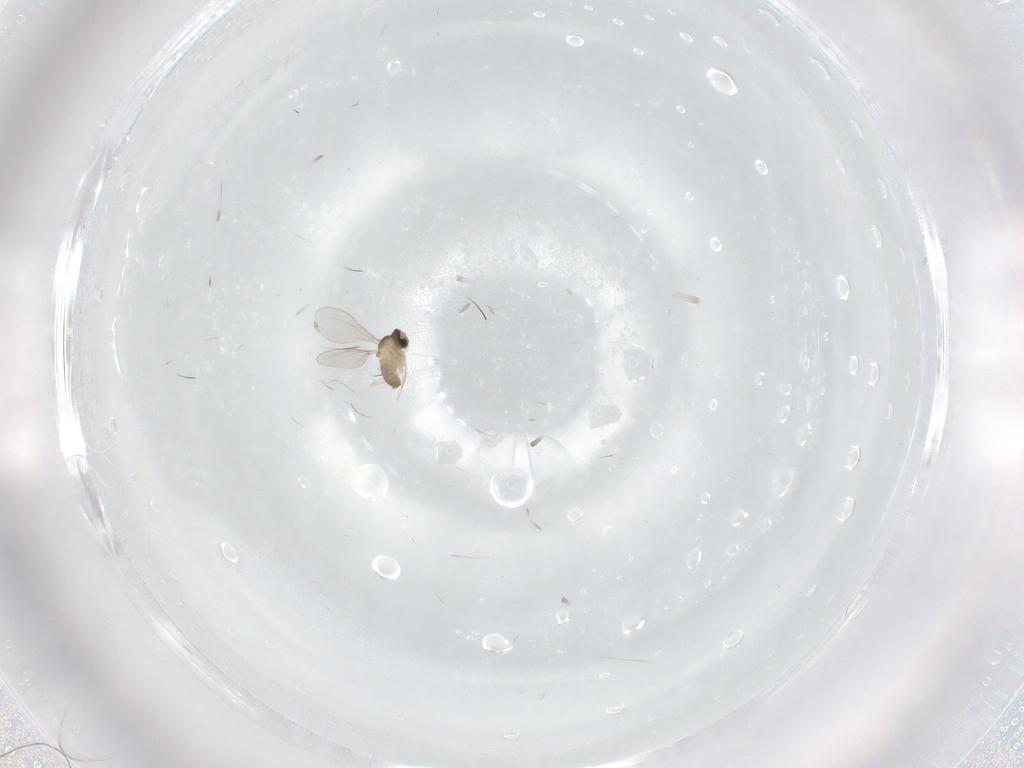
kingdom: Animalia
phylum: Arthropoda
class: Insecta
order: Diptera
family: Cecidomyiidae
